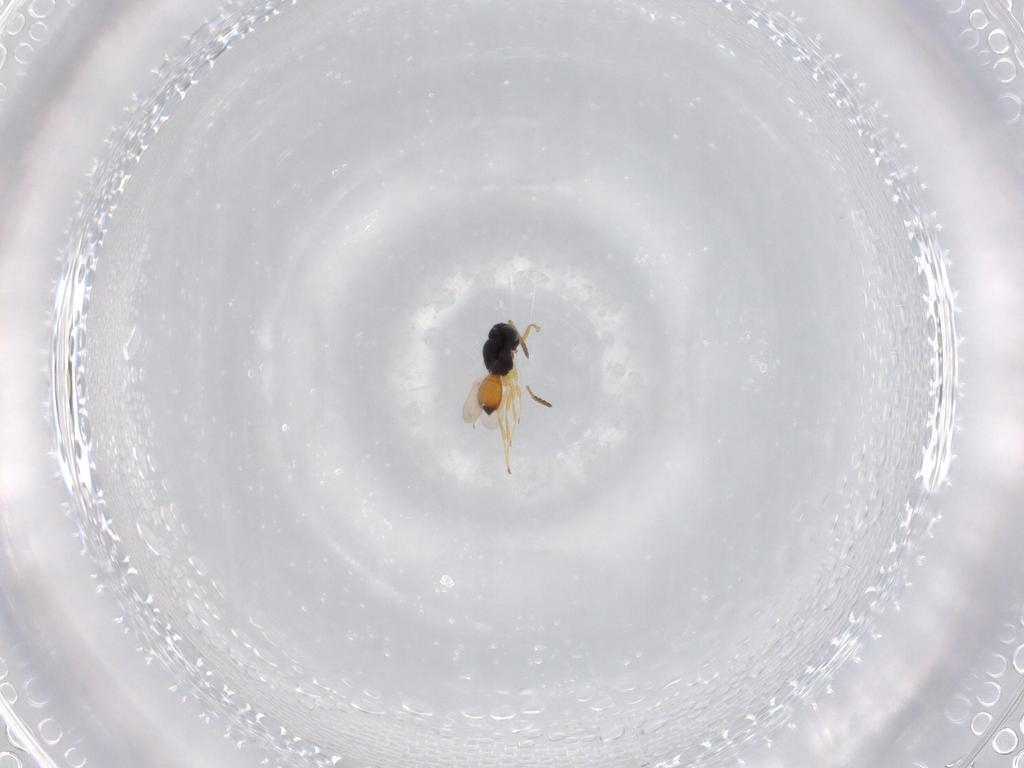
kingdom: Animalia
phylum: Arthropoda
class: Insecta
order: Hymenoptera
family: Scelionidae
